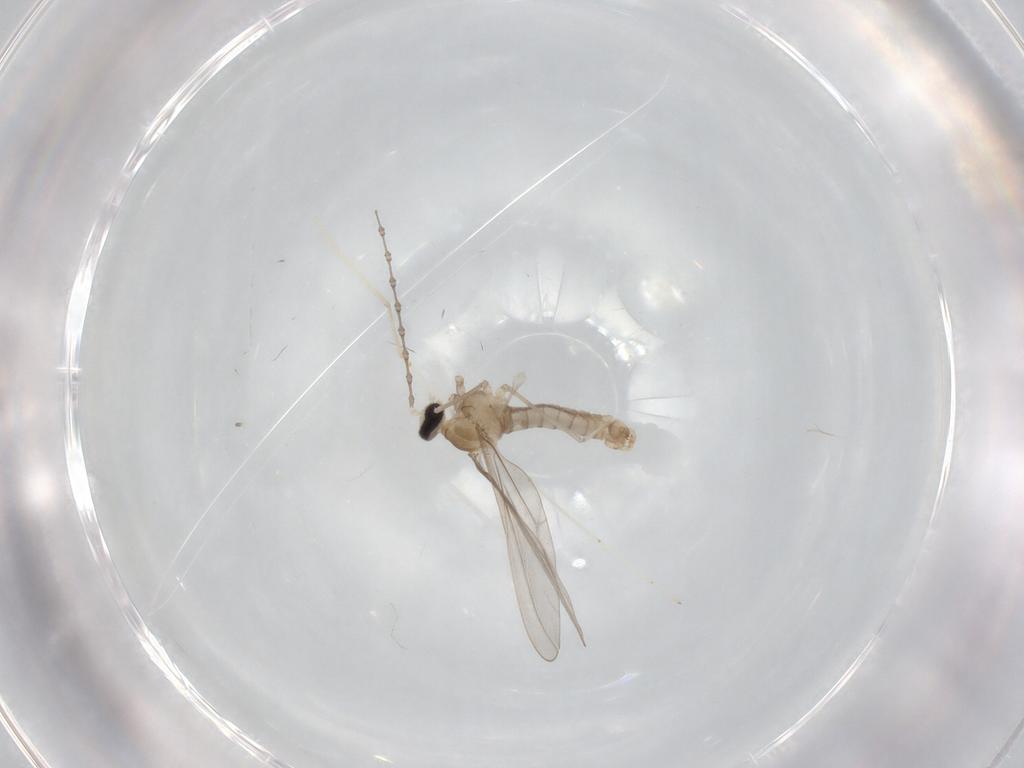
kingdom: Animalia
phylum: Arthropoda
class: Insecta
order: Diptera
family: Cecidomyiidae
